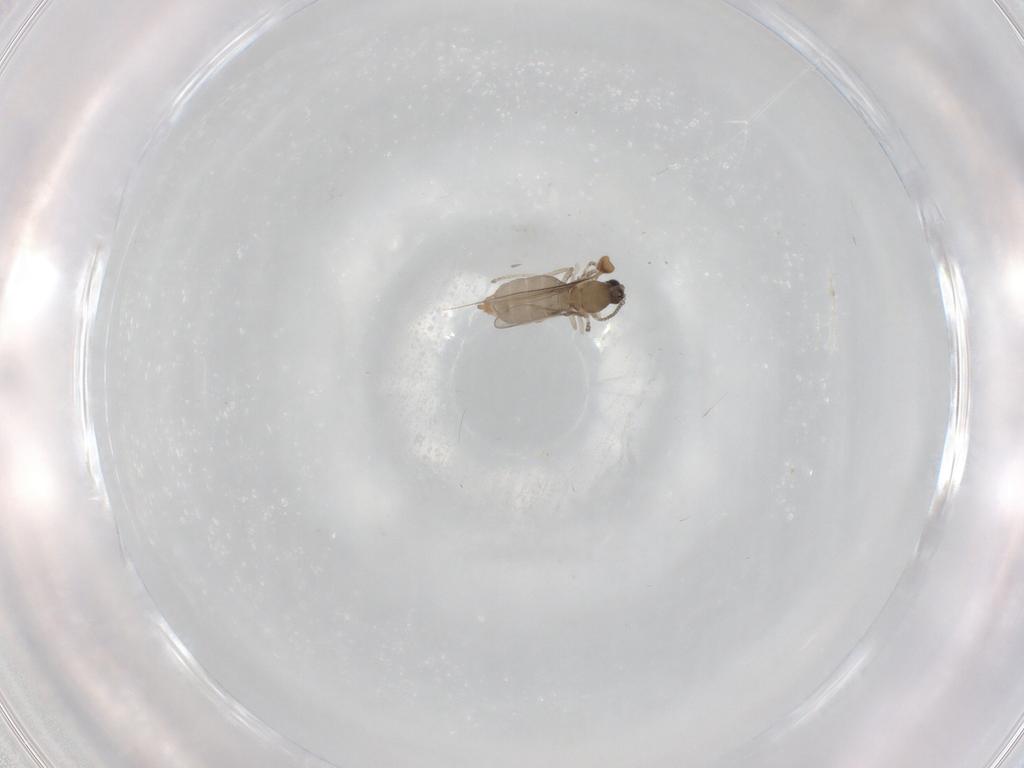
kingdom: Animalia
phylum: Arthropoda
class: Insecta
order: Diptera
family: Cecidomyiidae
